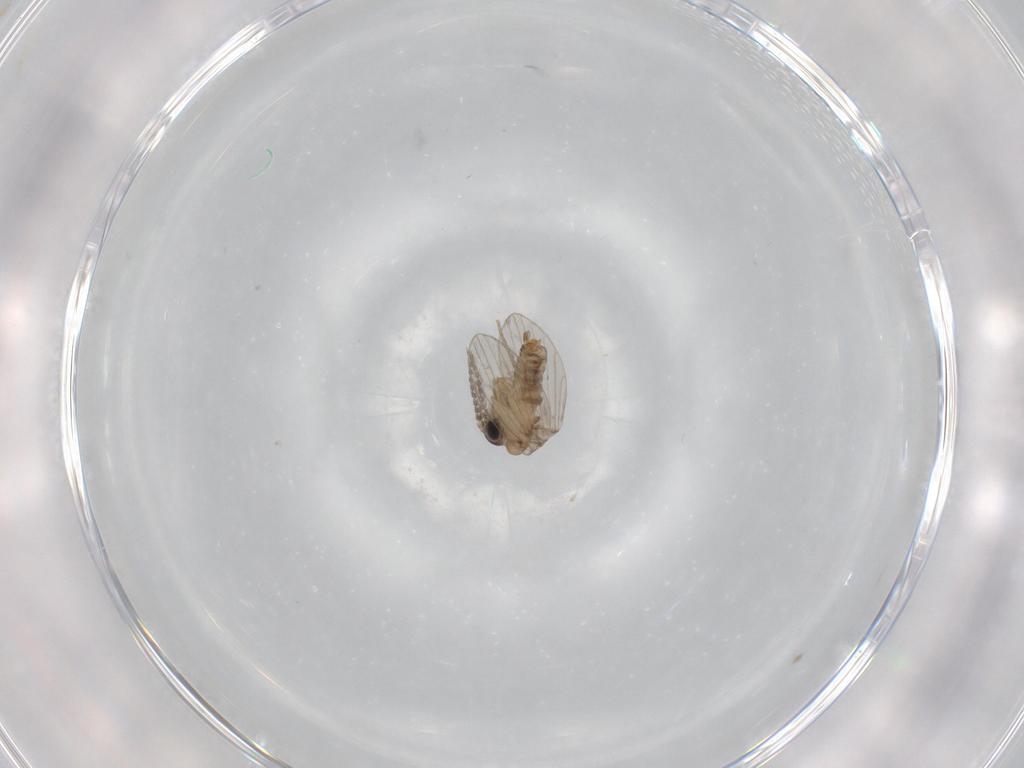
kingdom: Animalia
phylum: Arthropoda
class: Insecta
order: Diptera
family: Psychodidae
